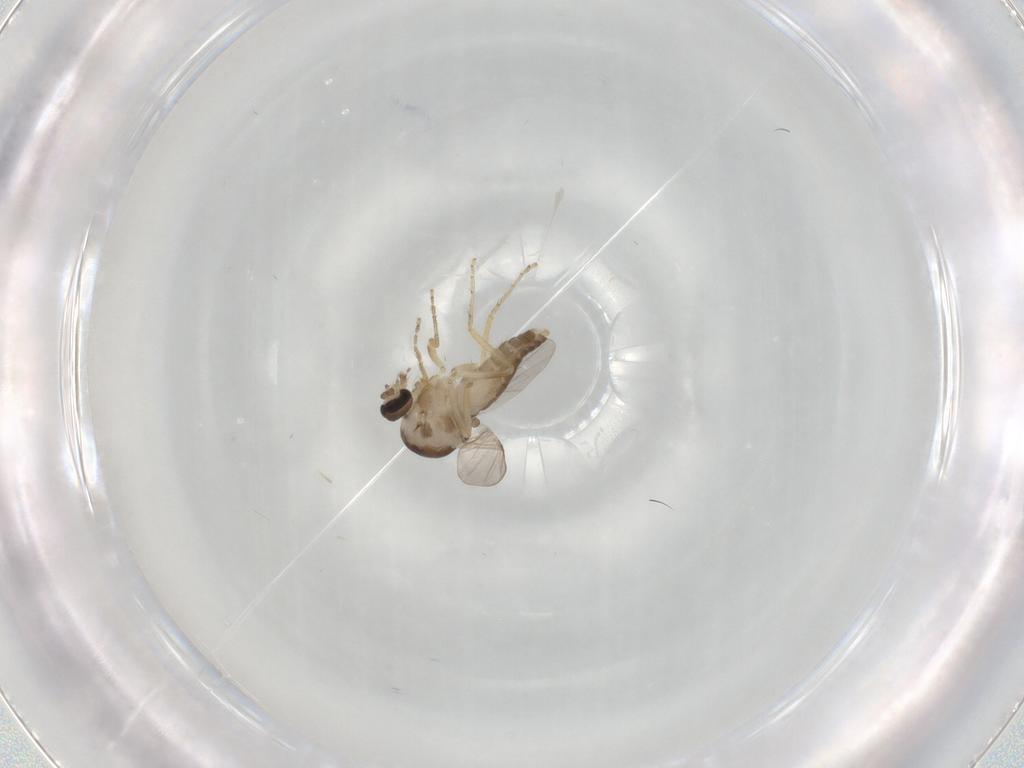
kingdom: Animalia
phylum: Arthropoda
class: Insecta
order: Diptera
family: Ceratopogonidae
